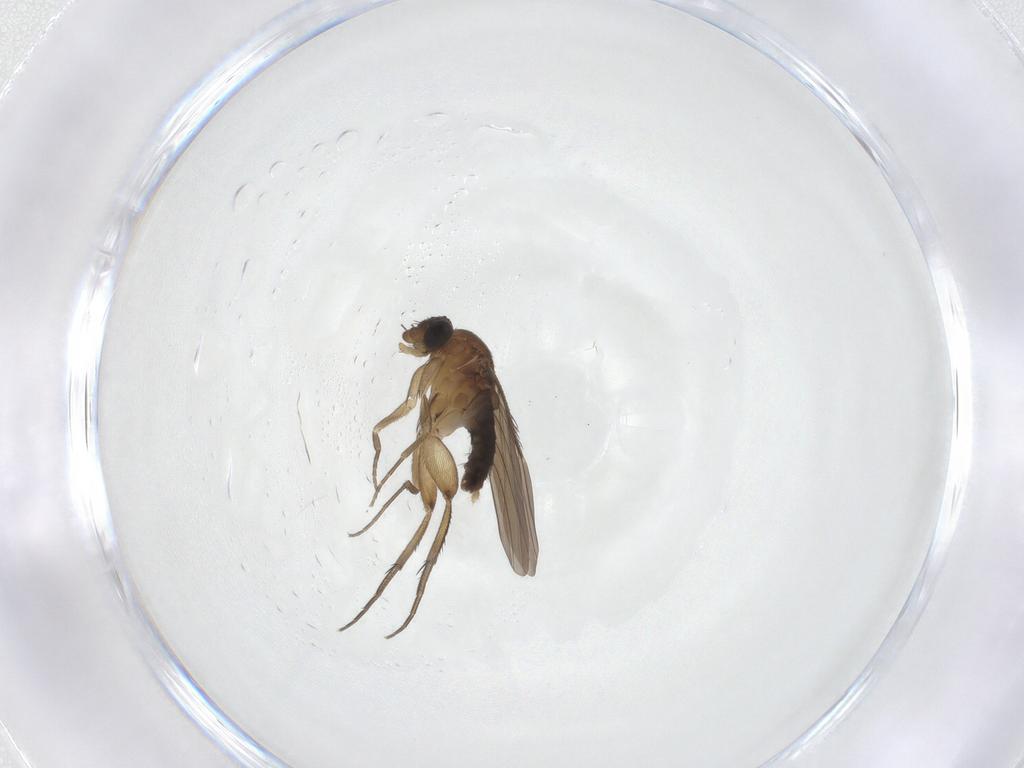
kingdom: Animalia
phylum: Arthropoda
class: Insecta
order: Diptera
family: Phoridae
